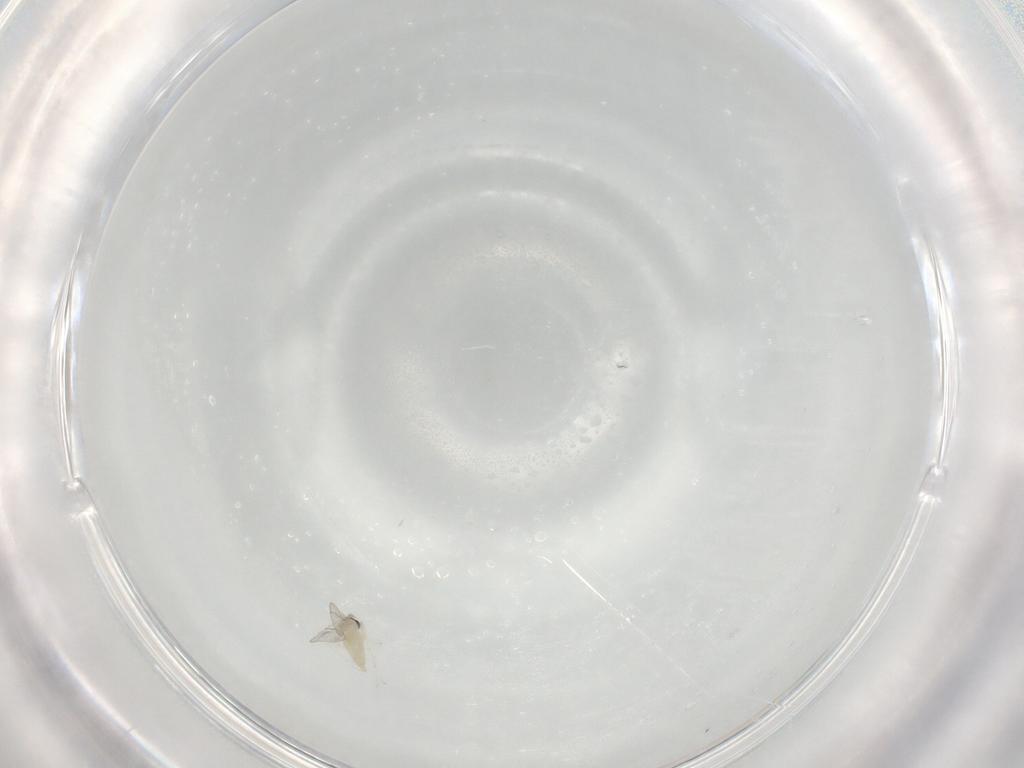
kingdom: Animalia
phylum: Arthropoda
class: Insecta
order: Diptera
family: Cecidomyiidae
